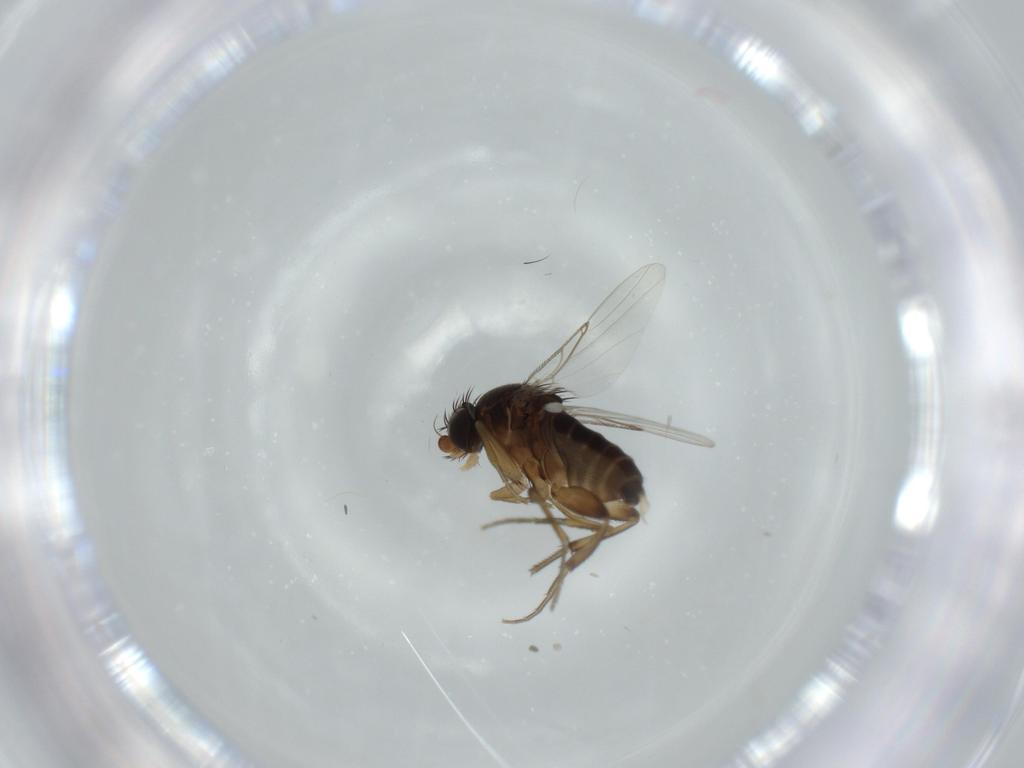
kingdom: Animalia
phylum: Arthropoda
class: Insecta
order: Diptera
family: Phoridae
